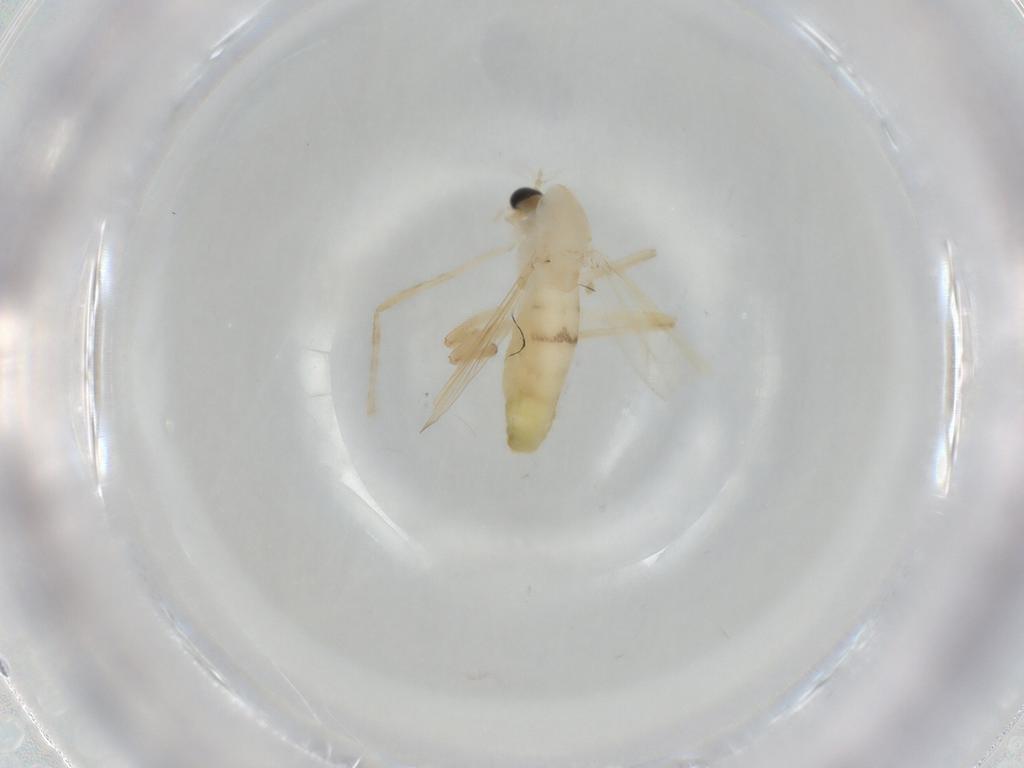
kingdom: Animalia
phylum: Arthropoda
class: Insecta
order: Diptera
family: Chironomidae
